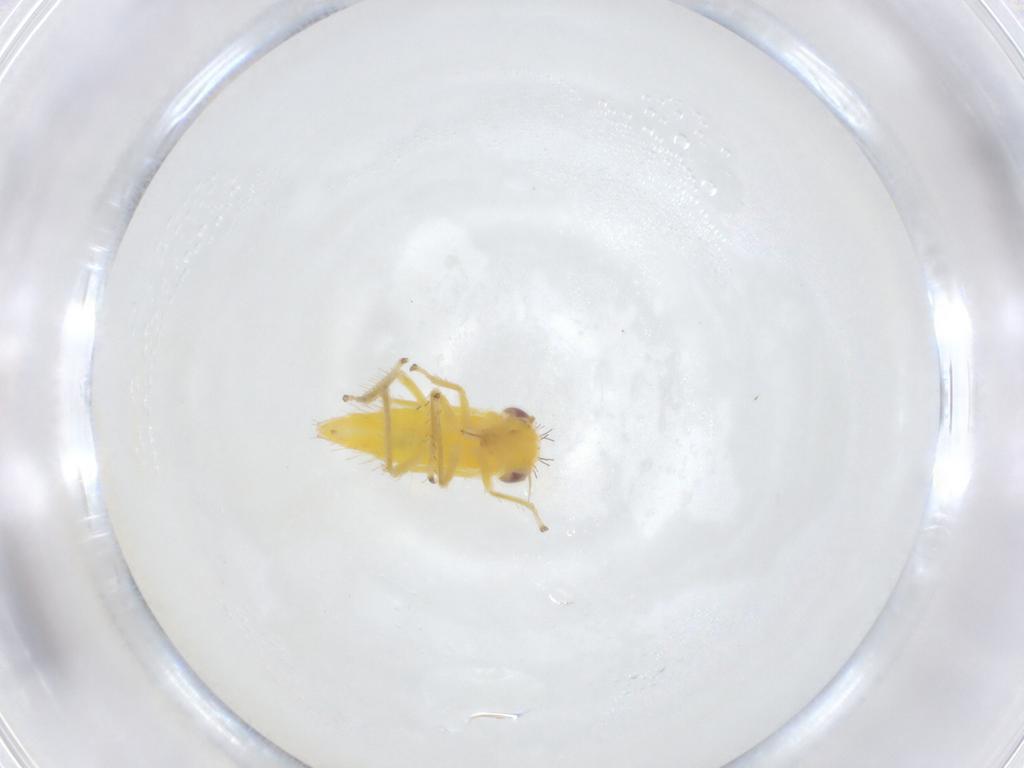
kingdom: Animalia
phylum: Arthropoda
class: Insecta
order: Hemiptera
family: Cicadellidae
